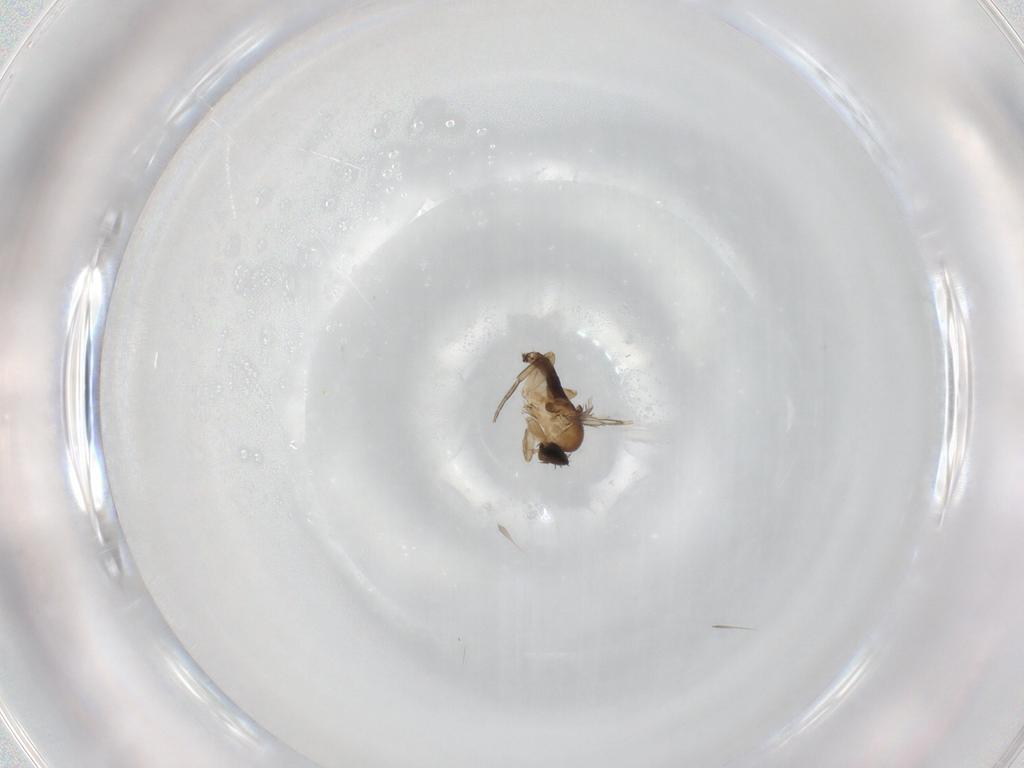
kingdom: Animalia
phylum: Arthropoda
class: Insecta
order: Diptera
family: Phoridae
